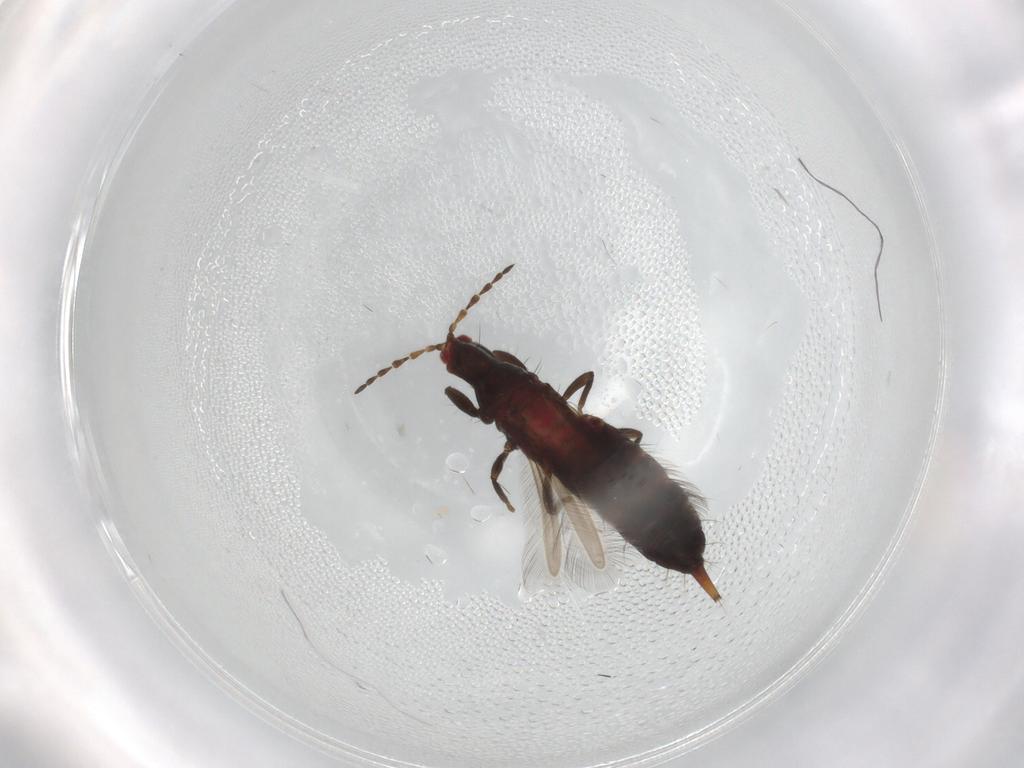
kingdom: Animalia
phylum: Arthropoda
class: Insecta
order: Thysanoptera
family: Phlaeothripidae
